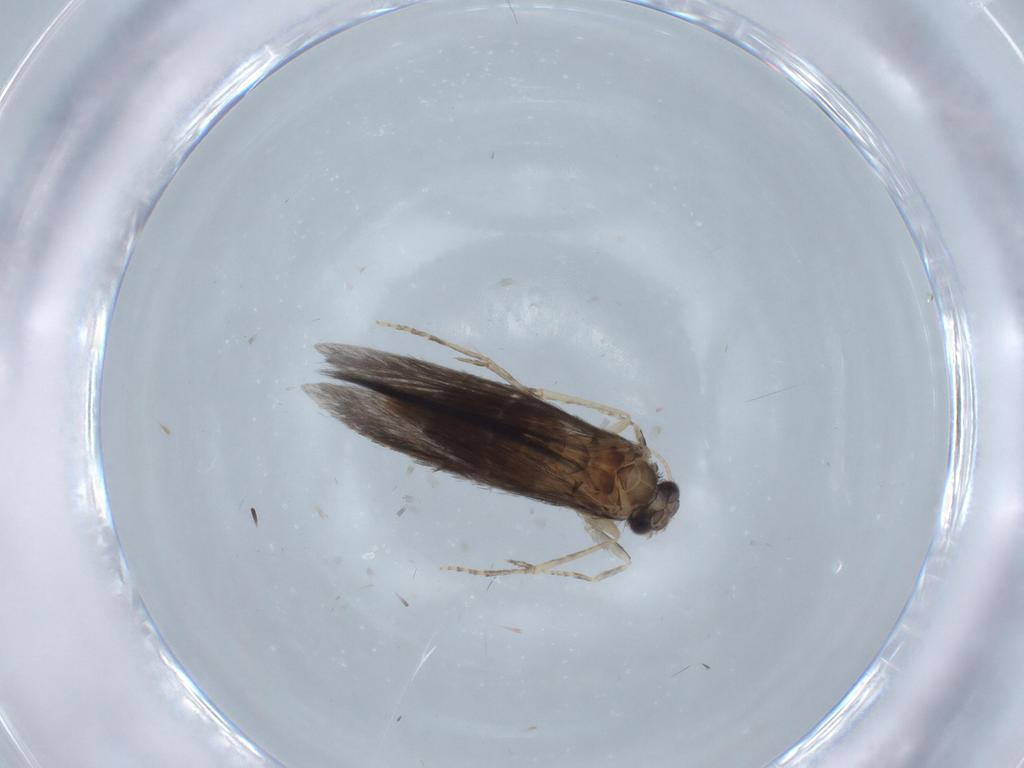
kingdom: Animalia
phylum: Arthropoda
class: Insecta
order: Trichoptera
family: Hydroptilidae
